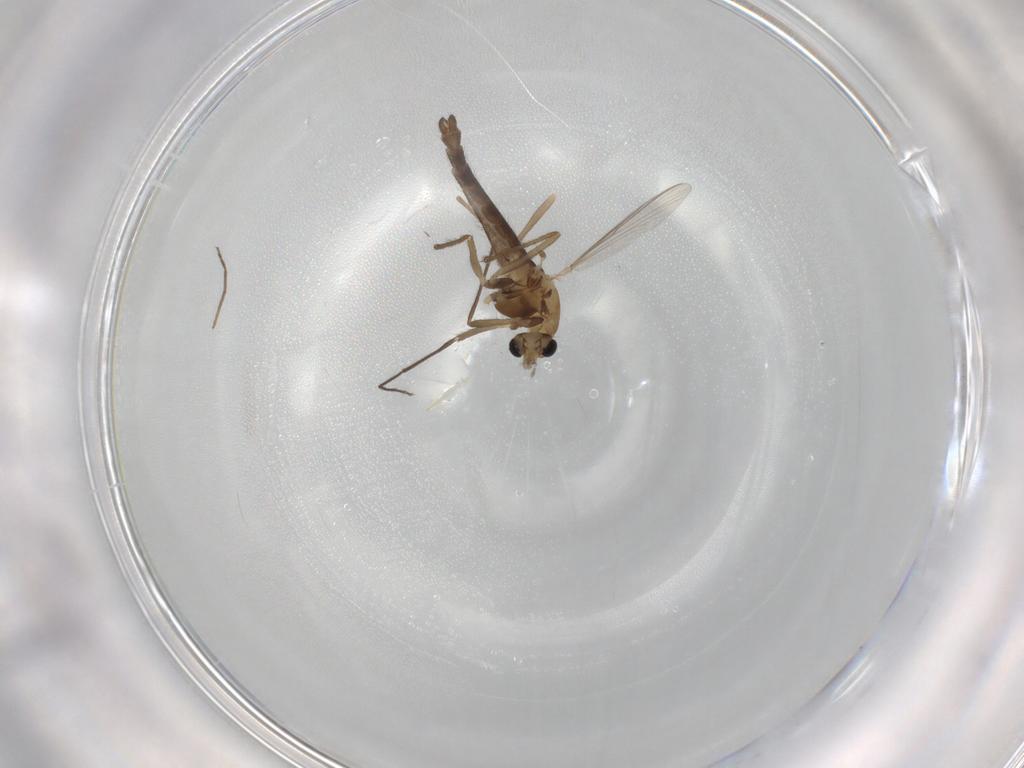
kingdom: Animalia
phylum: Arthropoda
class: Insecta
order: Diptera
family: Chironomidae
